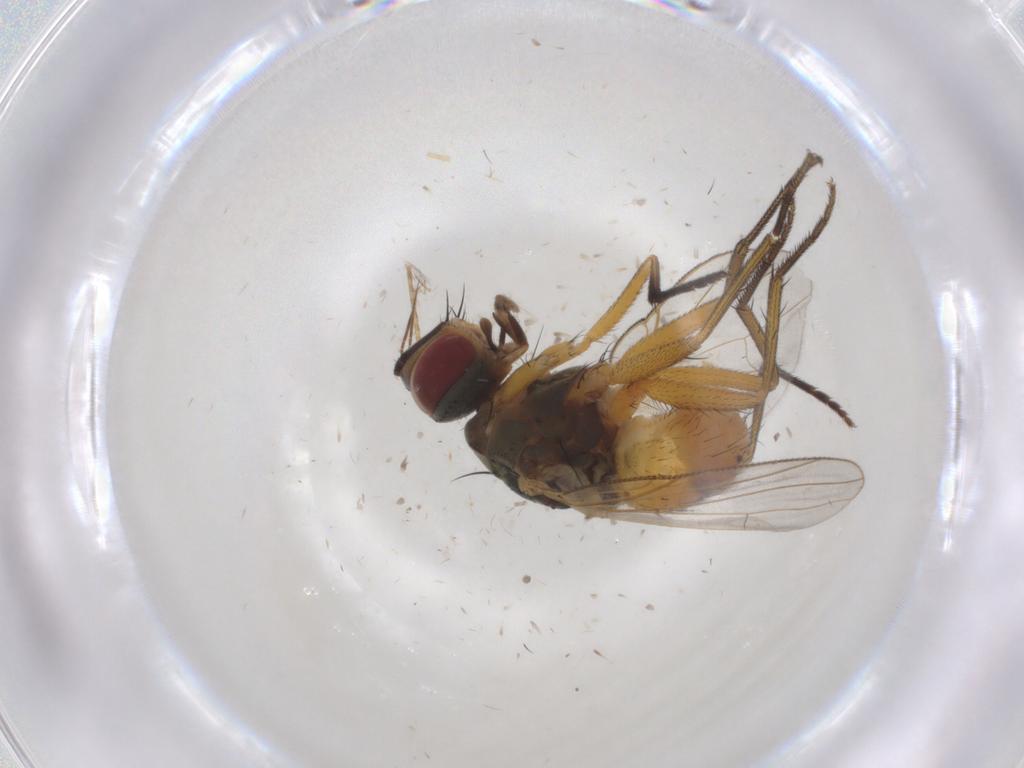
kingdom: Animalia
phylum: Arthropoda
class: Insecta
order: Diptera
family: Muscidae
